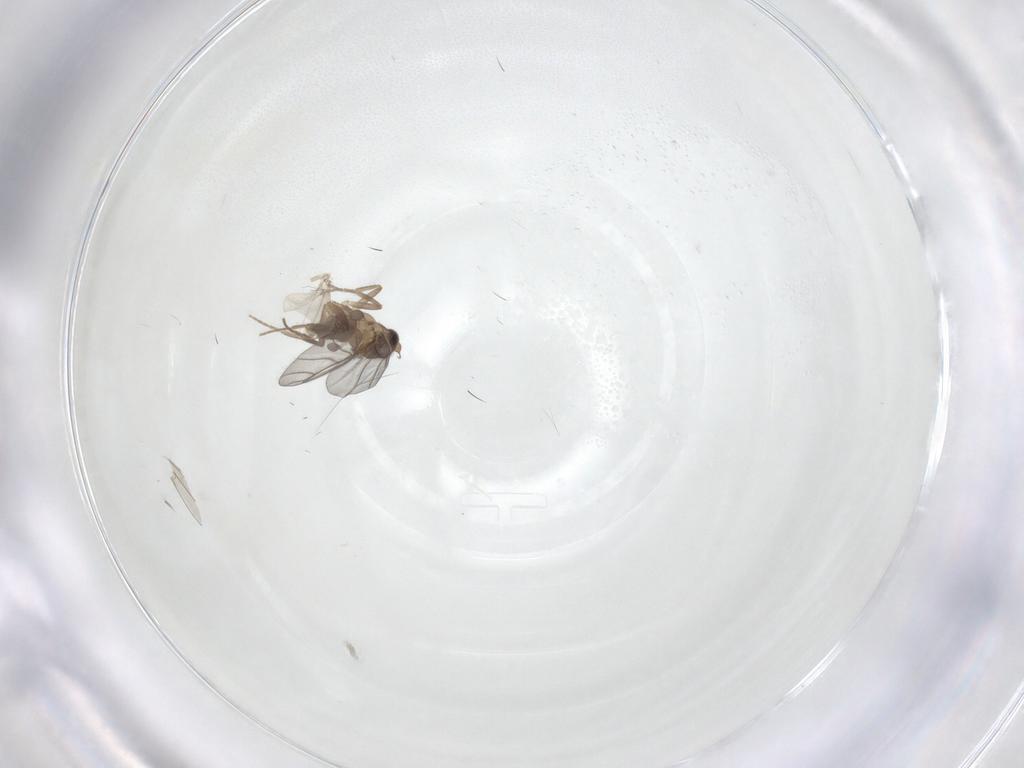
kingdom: Animalia
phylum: Arthropoda
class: Insecta
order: Diptera
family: Cecidomyiidae
